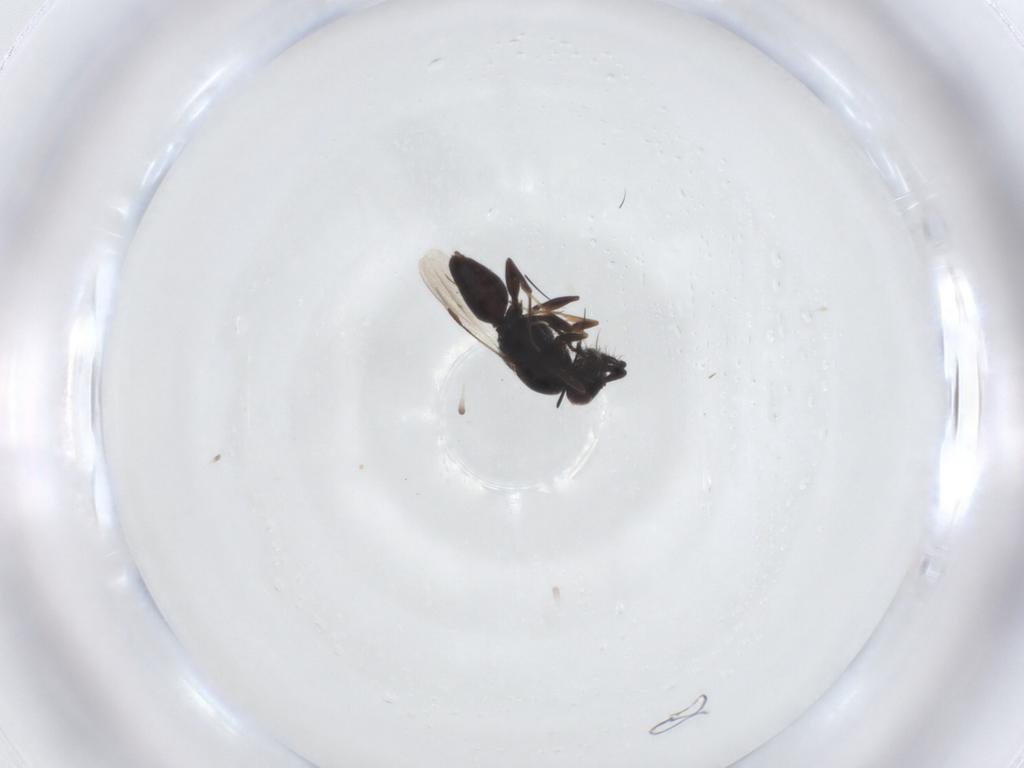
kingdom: Animalia
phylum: Arthropoda
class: Insecta
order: Hymenoptera
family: Megaspilidae
